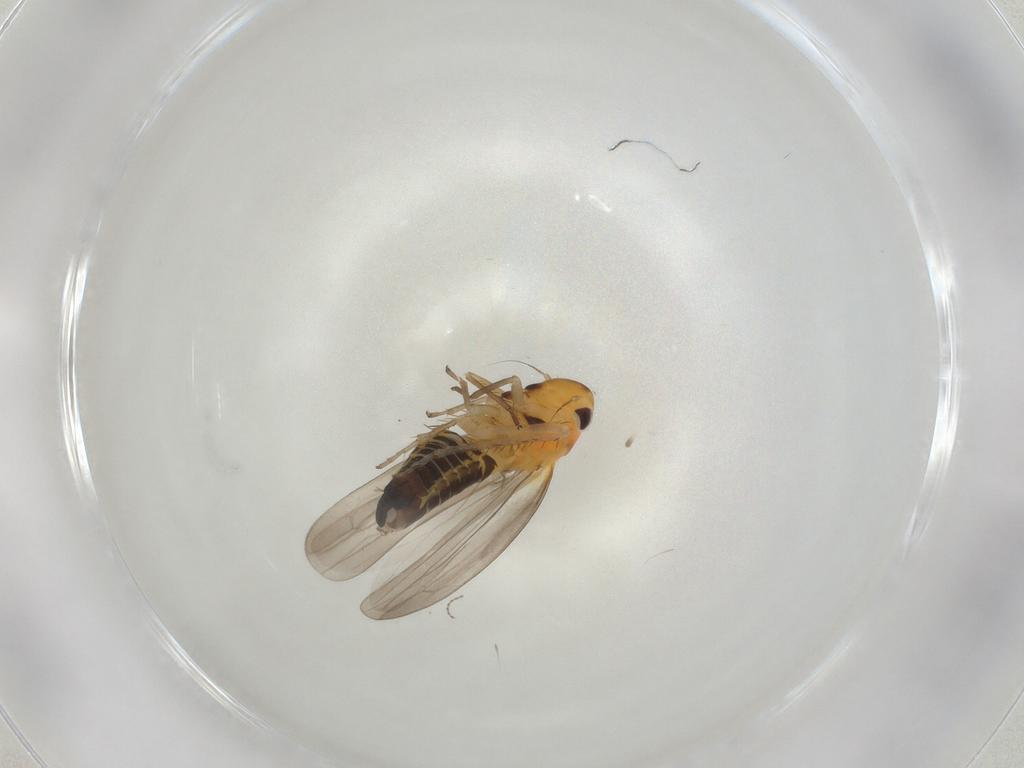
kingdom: Animalia
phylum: Arthropoda
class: Insecta
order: Hemiptera
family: Cicadellidae
